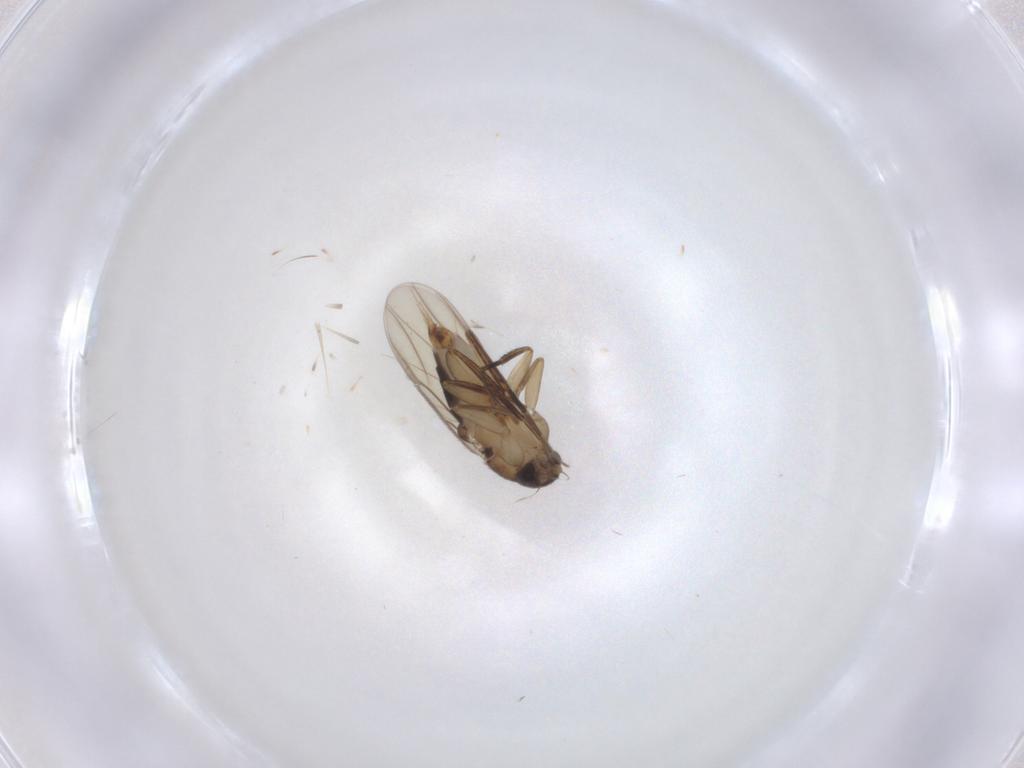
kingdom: Animalia
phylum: Arthropoda
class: Insecta
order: Diptera
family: Phoridae
